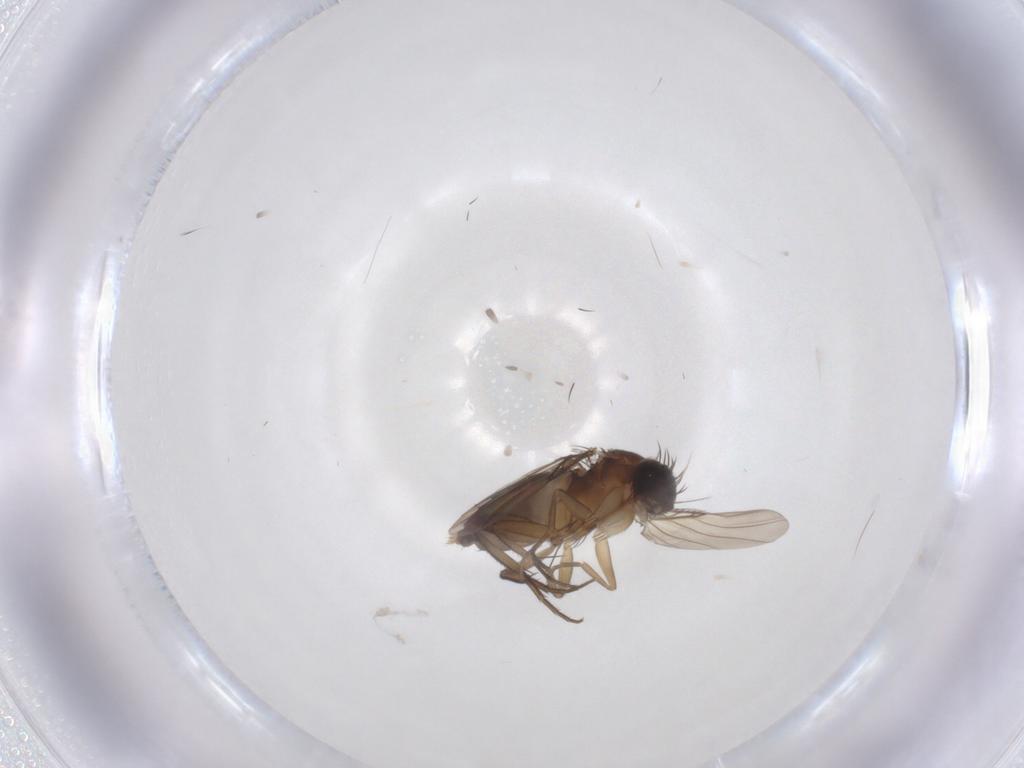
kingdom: Animalia
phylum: Arthropoda
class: Insecta
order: Diptera
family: Phoridae
